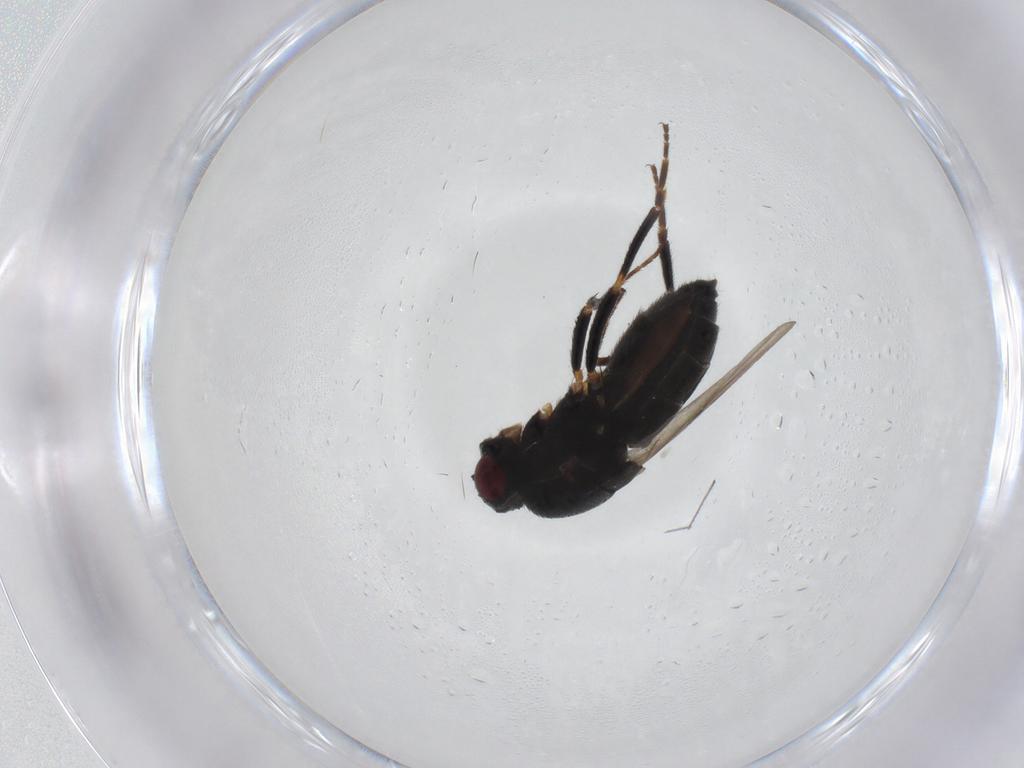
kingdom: Animalia
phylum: Arthropoda
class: Insecta
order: Diptera
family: Sphaeroceridae
